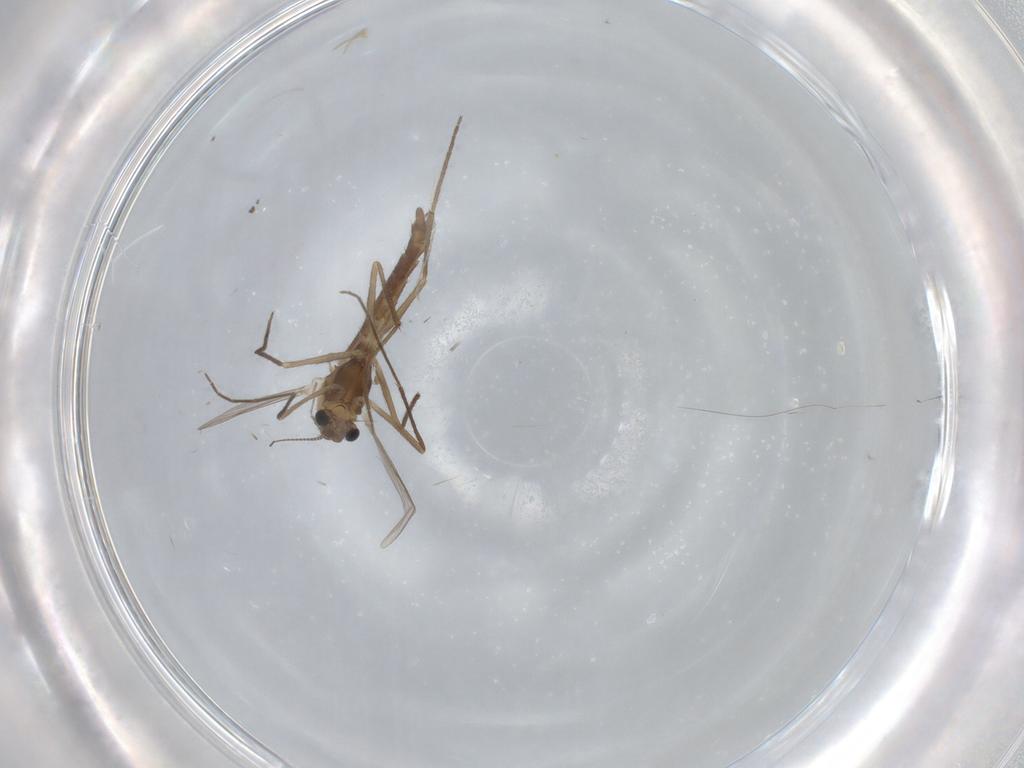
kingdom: Animalia
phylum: Arthropoda
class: Insecta
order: Diptera
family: Chironomidae
